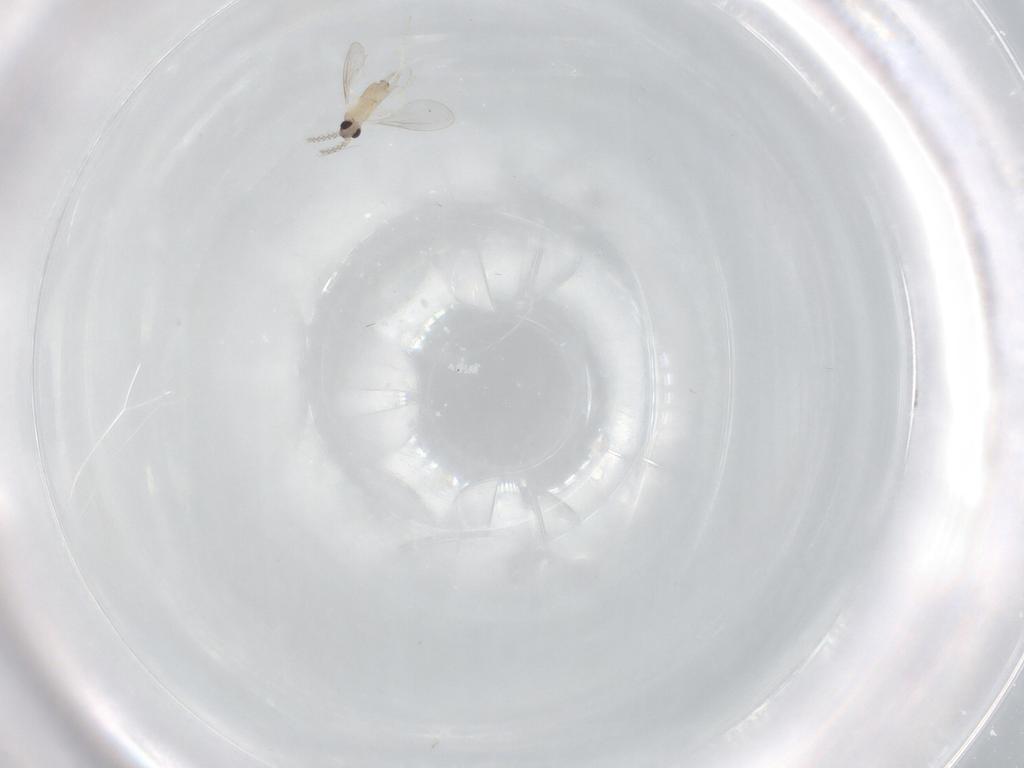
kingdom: Animalia
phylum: Arthropoda
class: Insecta
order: Diptera
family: Cecidomyiidae
